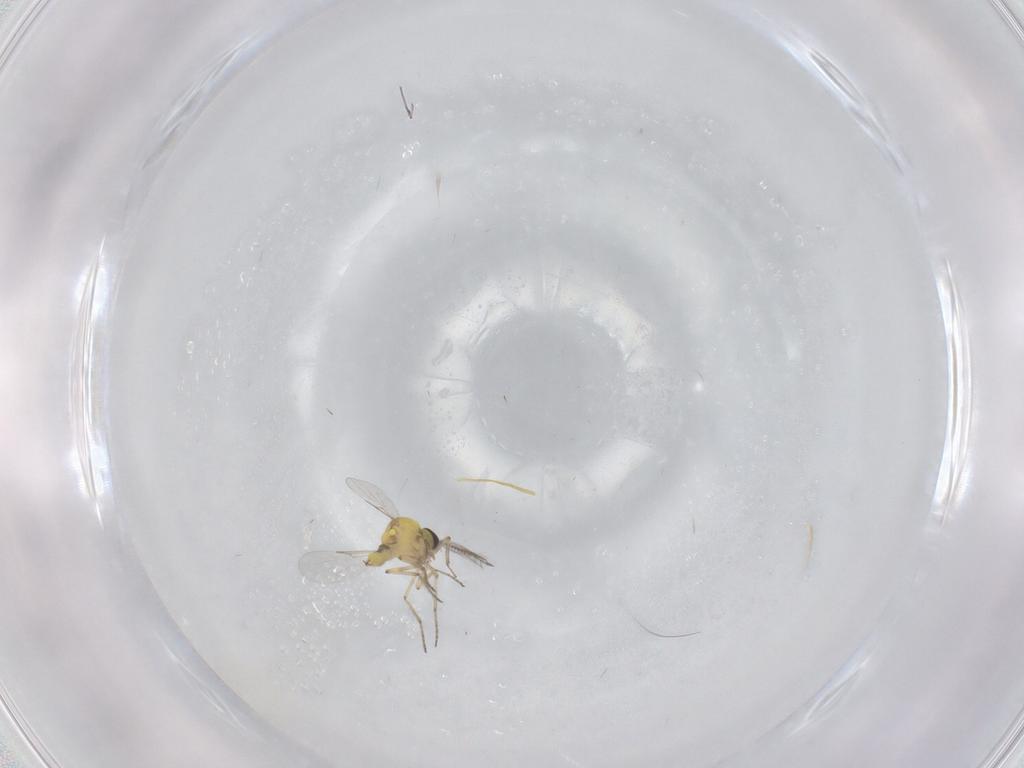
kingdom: Animalia
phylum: Arthropoda
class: Insecta
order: Diptera
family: Ceratopogonidae
